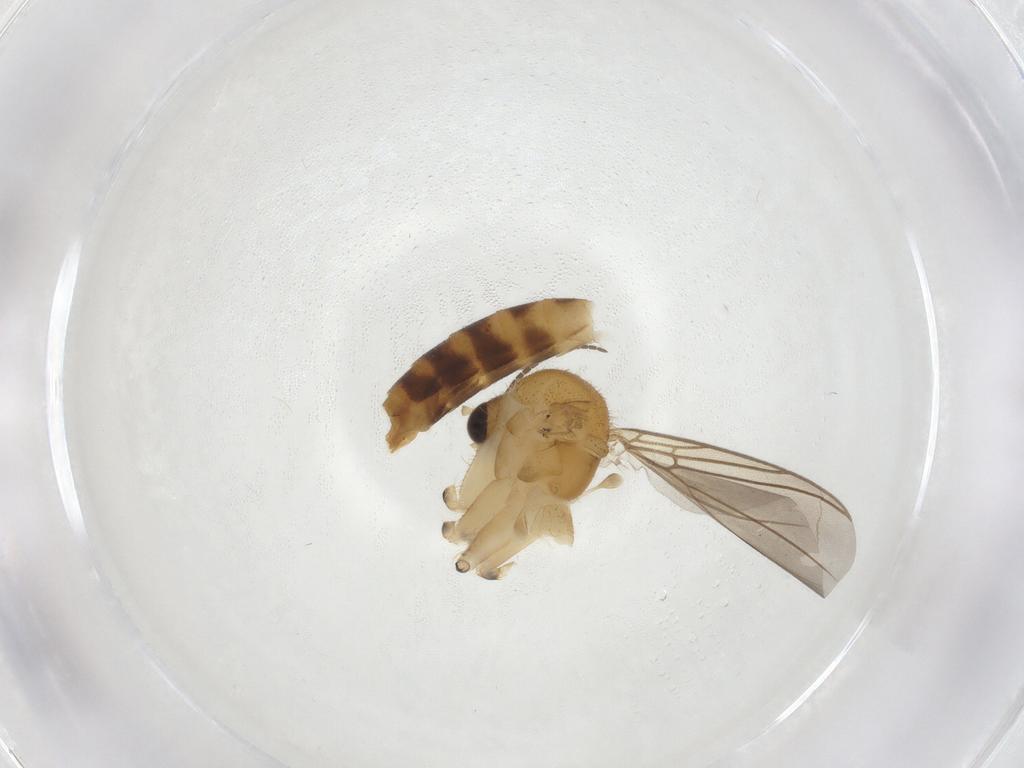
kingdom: Animalia
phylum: Arthropoda
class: Insecta
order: Diptera
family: Mycetophilidae
